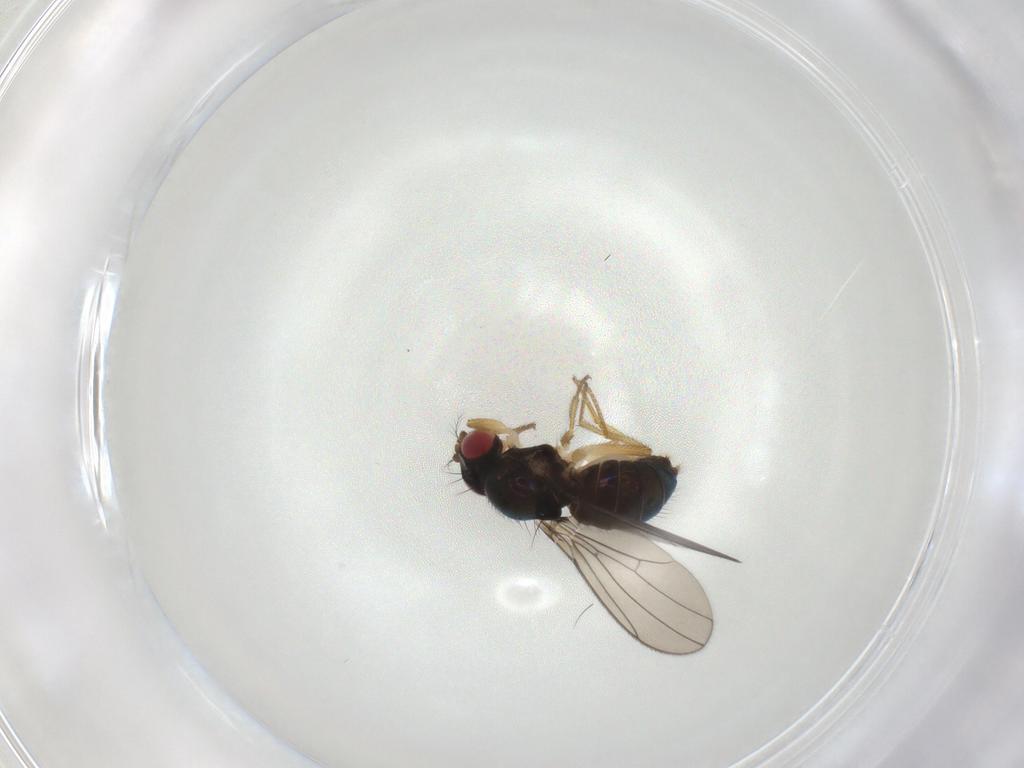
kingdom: Animalia
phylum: Arthropoda
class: Insecta
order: Diptera
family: Drosophilidae
